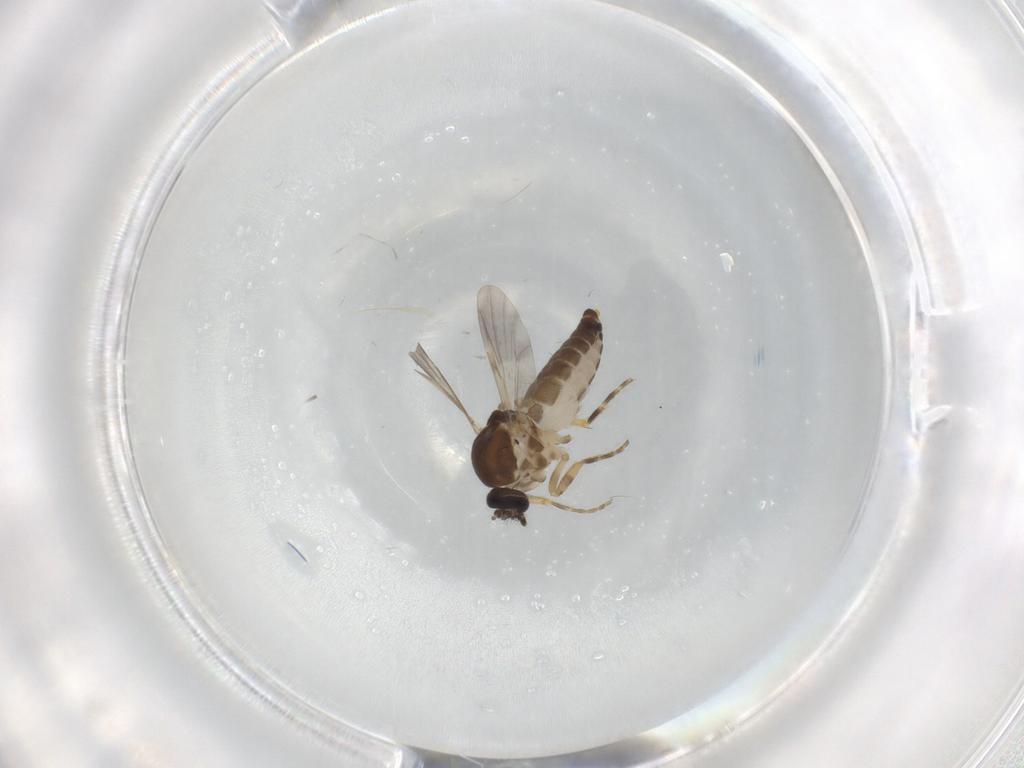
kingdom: Animalia
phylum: Arthropoda
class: Insecta
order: Diptera
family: Ceratopogonidae
